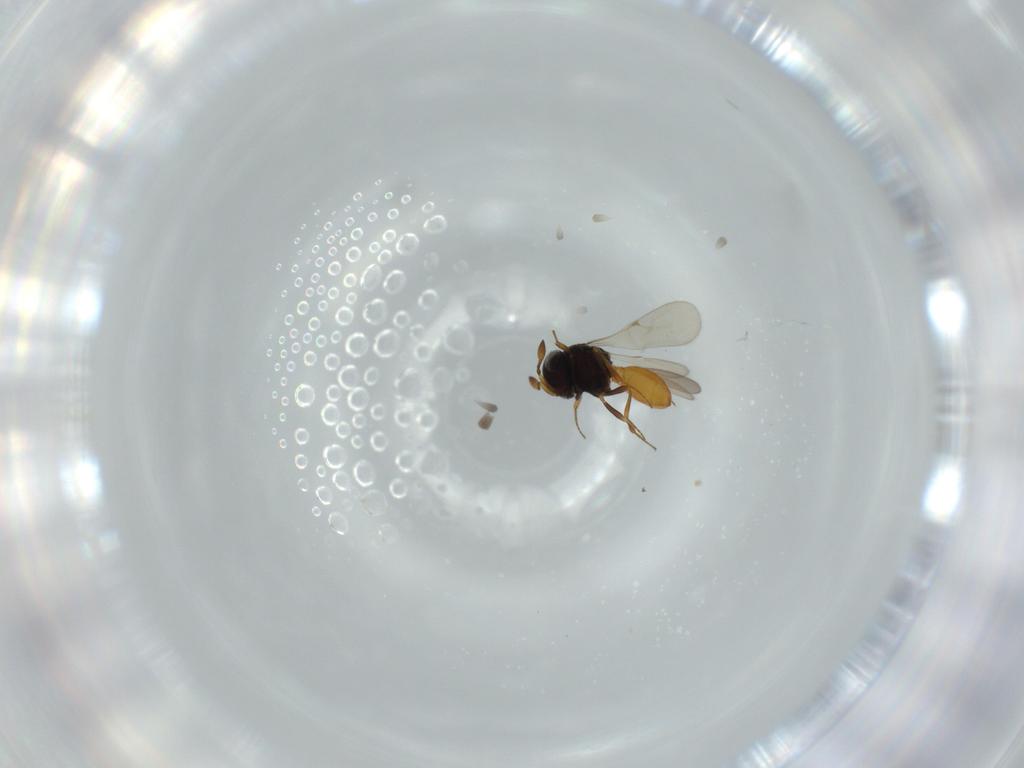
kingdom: Animalia
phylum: Arthropoda
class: Insecta
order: Hymenoptera
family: Scelionidae
